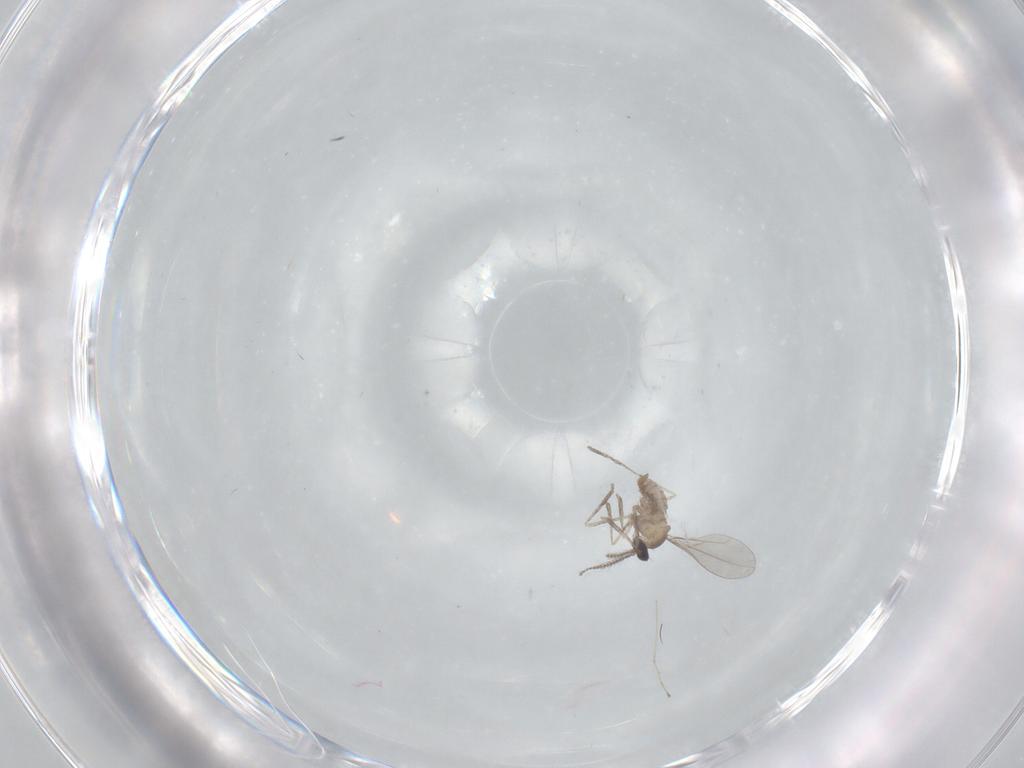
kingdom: Animalia
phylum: Arthropoda
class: Insecta
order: Diptera
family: Cecidomyiidae
